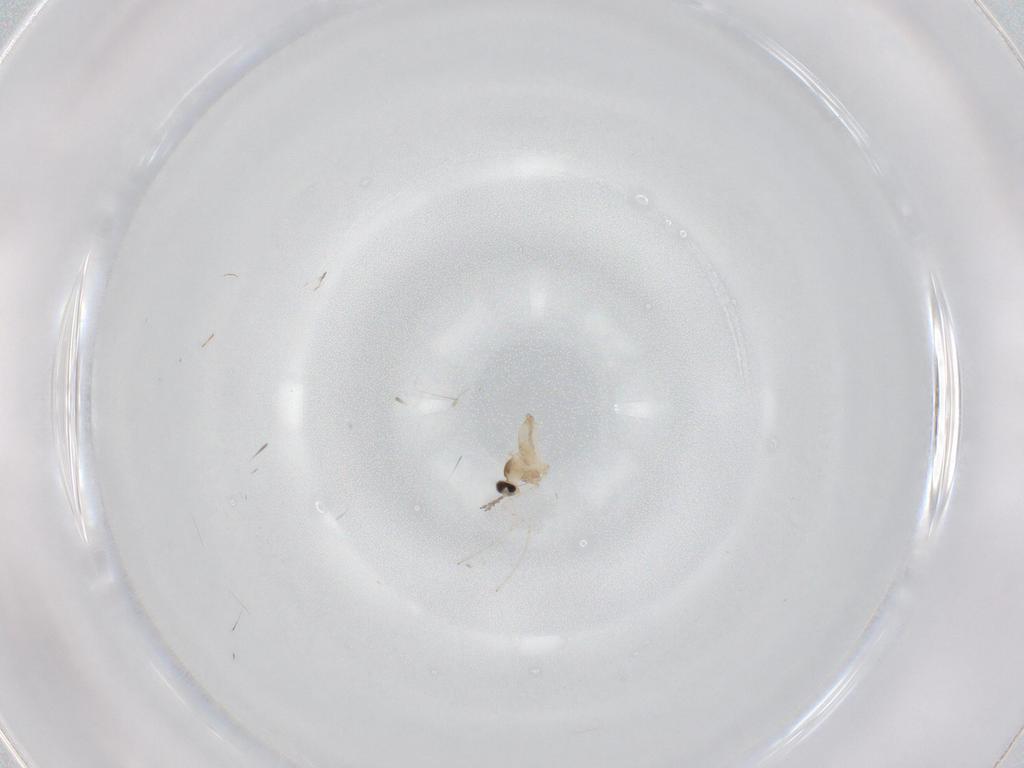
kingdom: Animalia
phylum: Arthropoda
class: Insecta
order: Diptera
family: Cecidomyiidae
